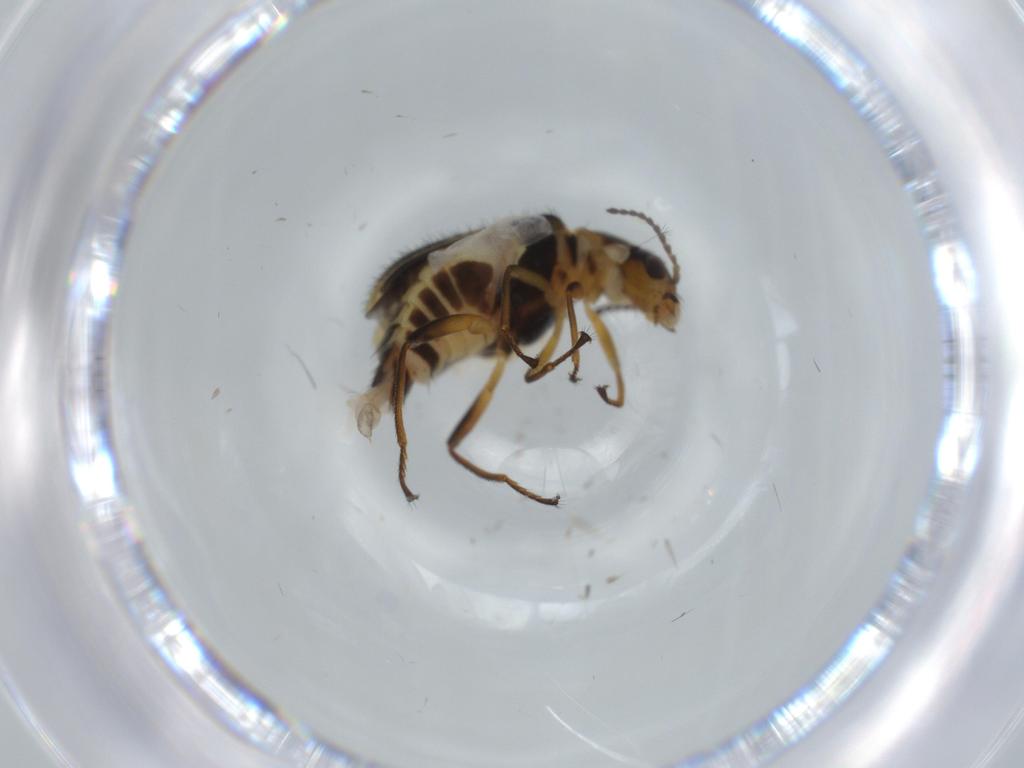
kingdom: Animalia
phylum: Arthropoda
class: Insecta
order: Coleoptera
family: Melyridae
